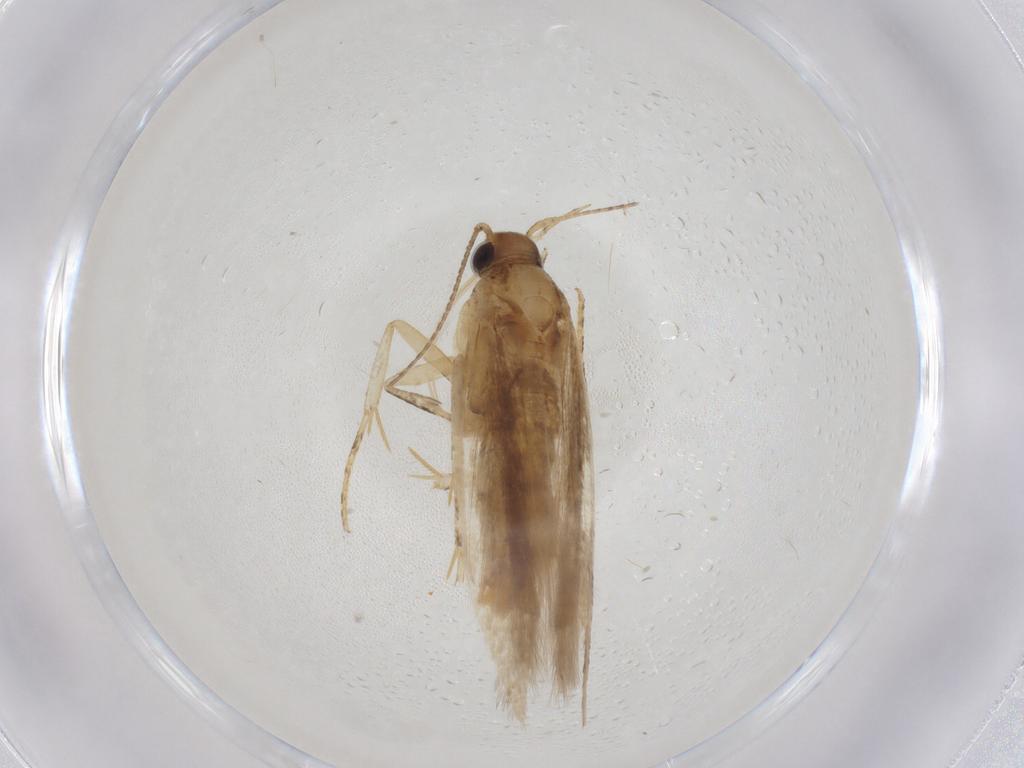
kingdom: Animalia
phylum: Arthropoda
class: Insecta
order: Lepidoptera
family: Gelechiidae
